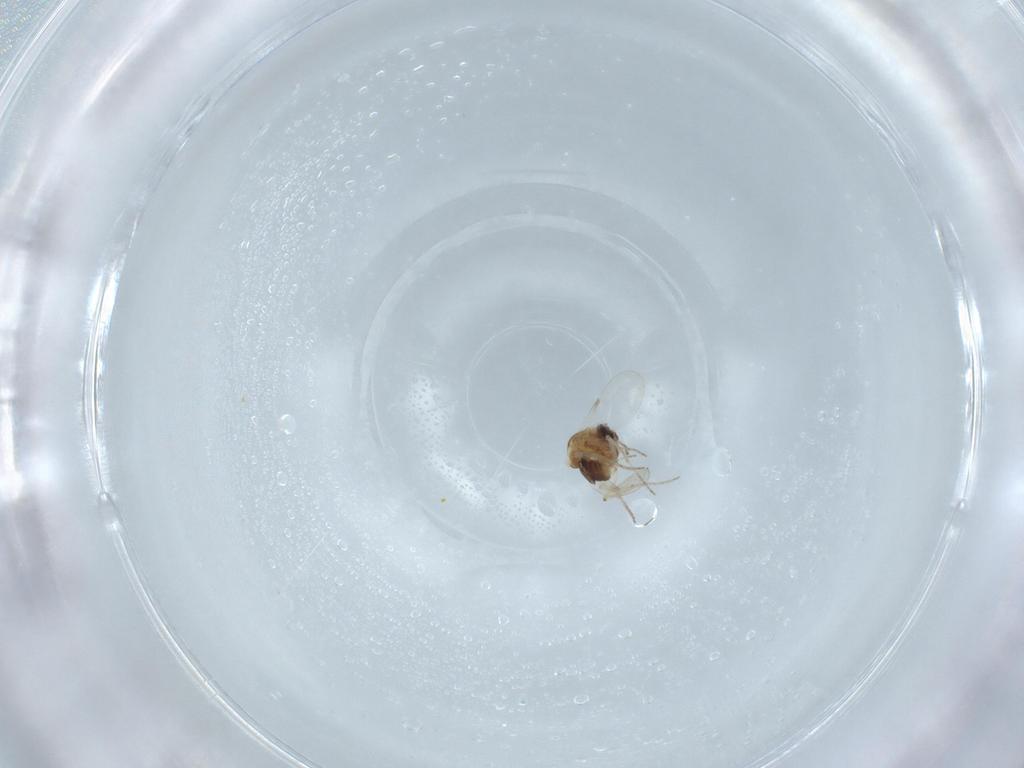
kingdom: Animalia
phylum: Arthropoda
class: Insecta
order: Diptera
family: Ceratopogonidae
